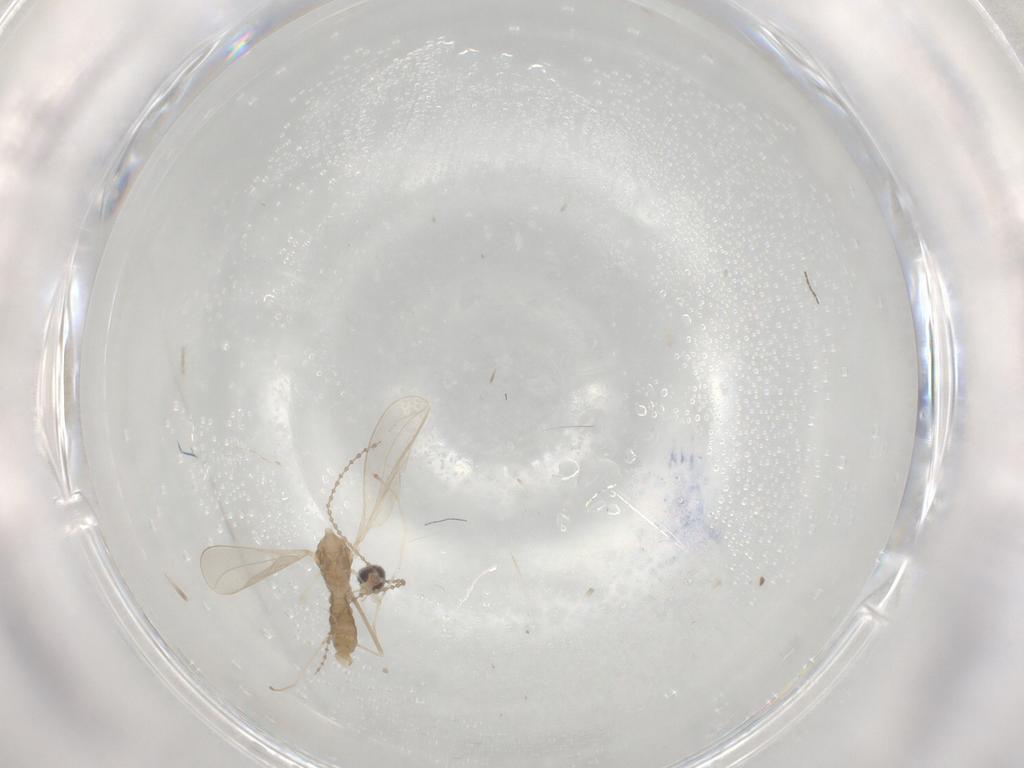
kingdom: Animalia
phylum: Arthropoda
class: Insecta
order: Diptera
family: Cecidomyiidae
